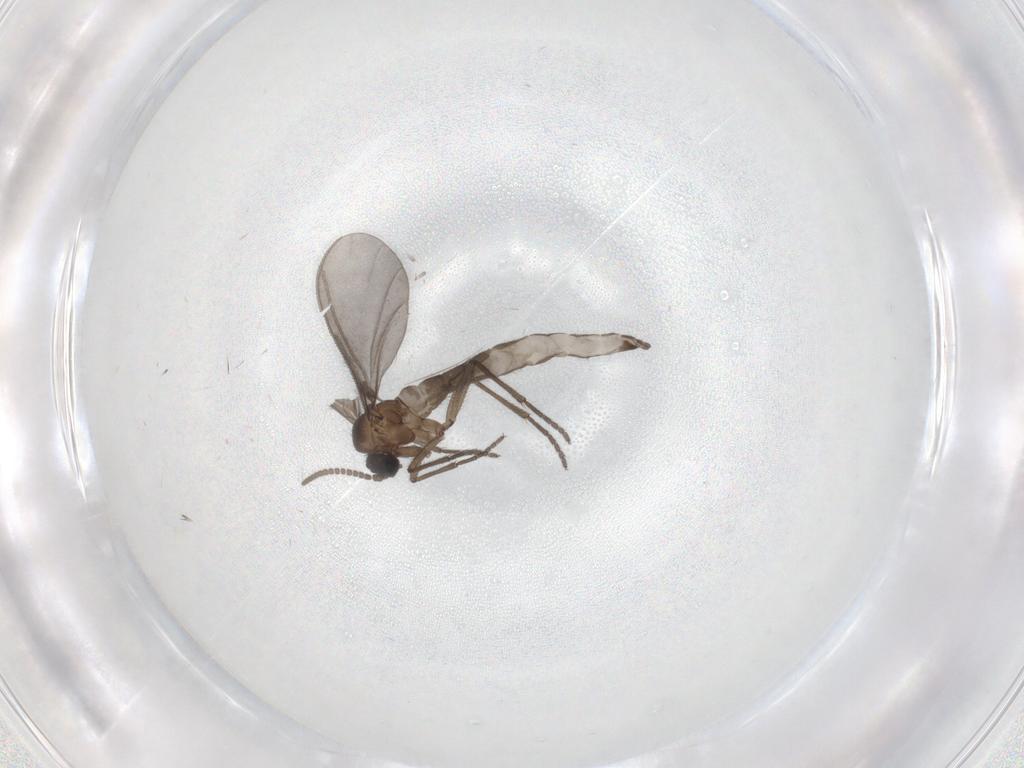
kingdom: Animalia
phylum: Arthropoda
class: Insecta
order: Diptera
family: Sciaridae
